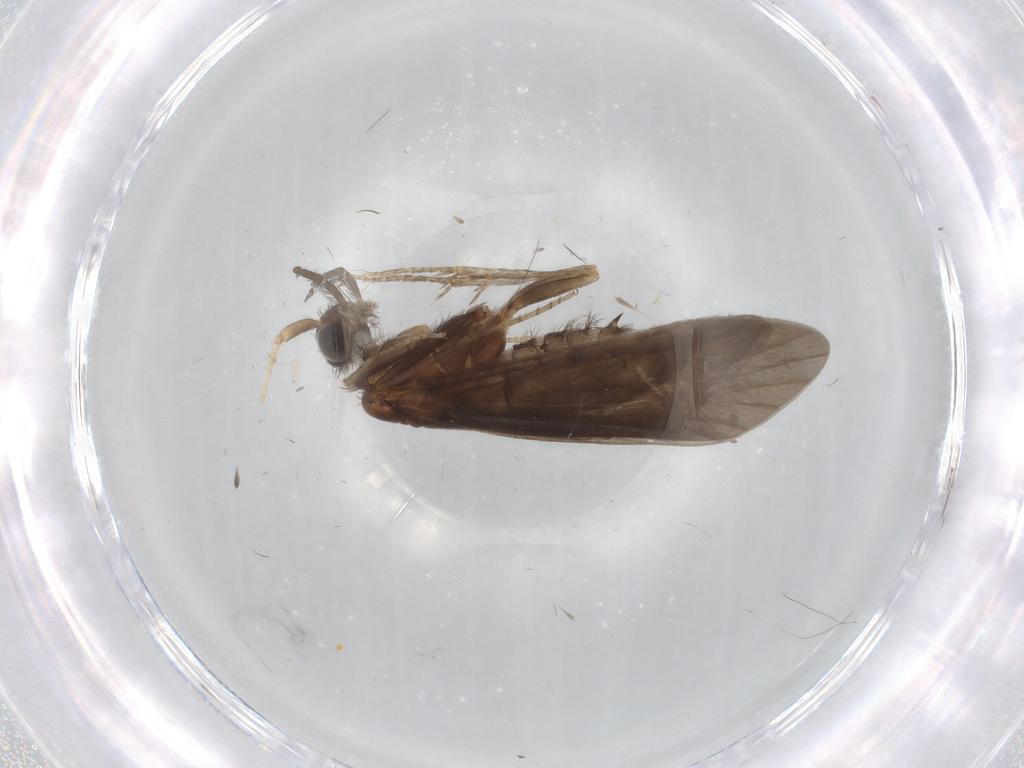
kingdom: Animalia
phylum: Arthropoda
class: Insecta
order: Trichoptera
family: Helicopsychidae
